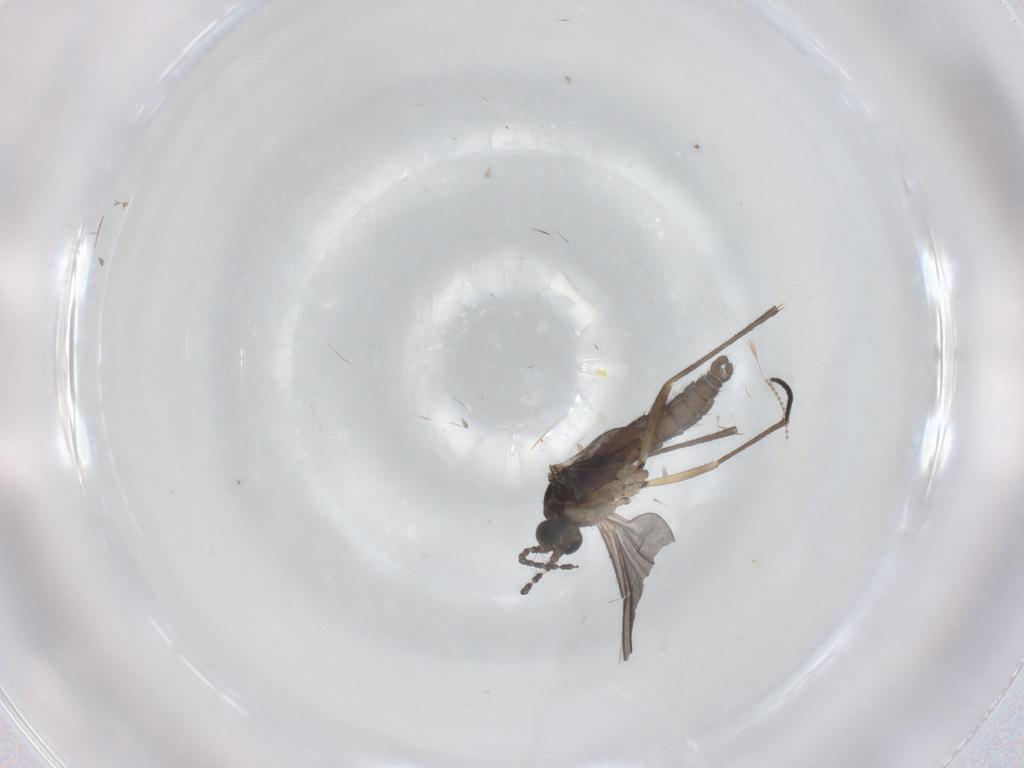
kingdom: Animalia
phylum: Arthropoda
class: Insecta
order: Diptera
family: Sciaridae
